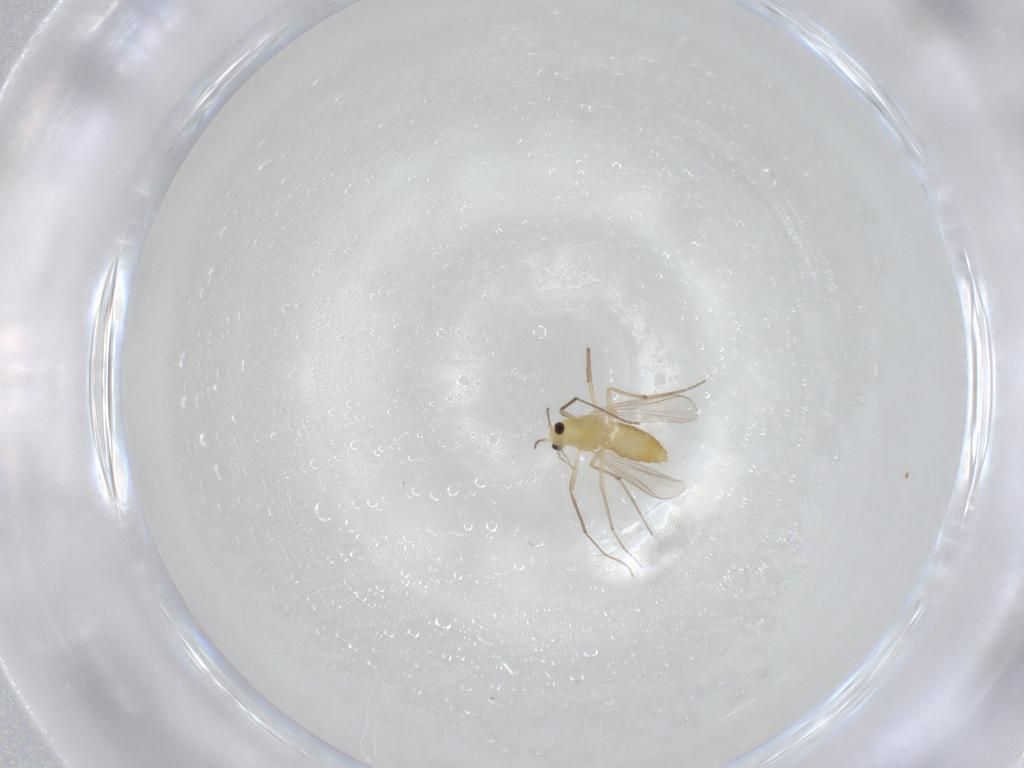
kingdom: Animalia
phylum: Arthropoda
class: Insecta
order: Diptera
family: Chironomidae
